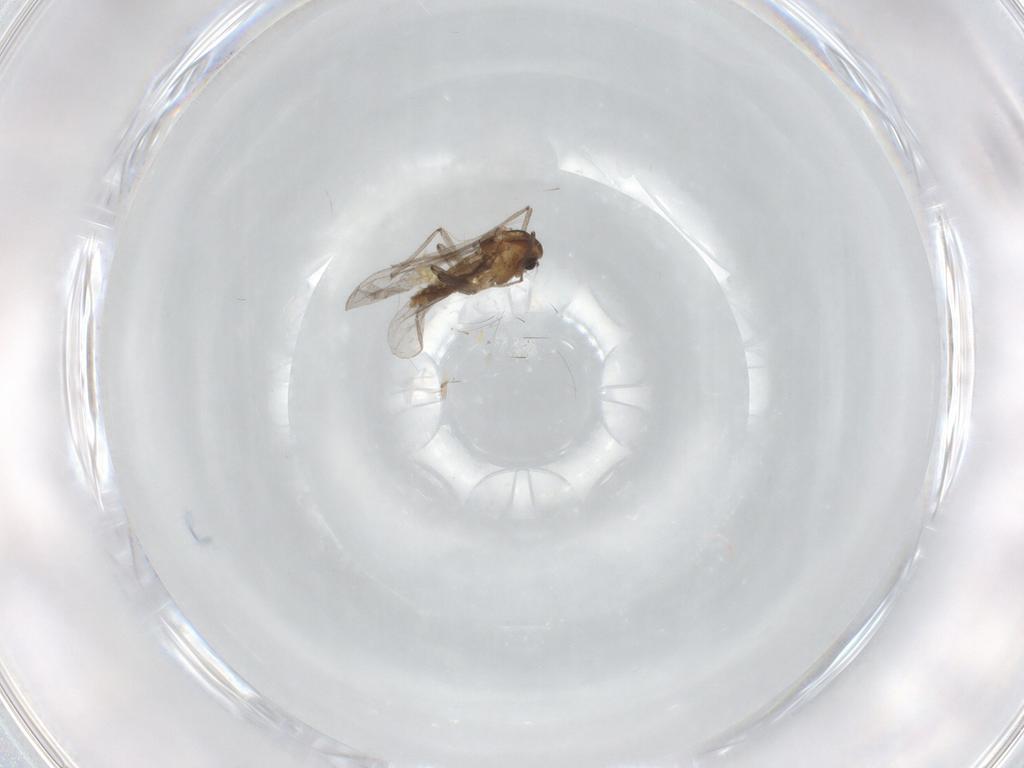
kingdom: Animalia
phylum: Arthropoda
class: Insecta
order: Diptera
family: Chironomidae
